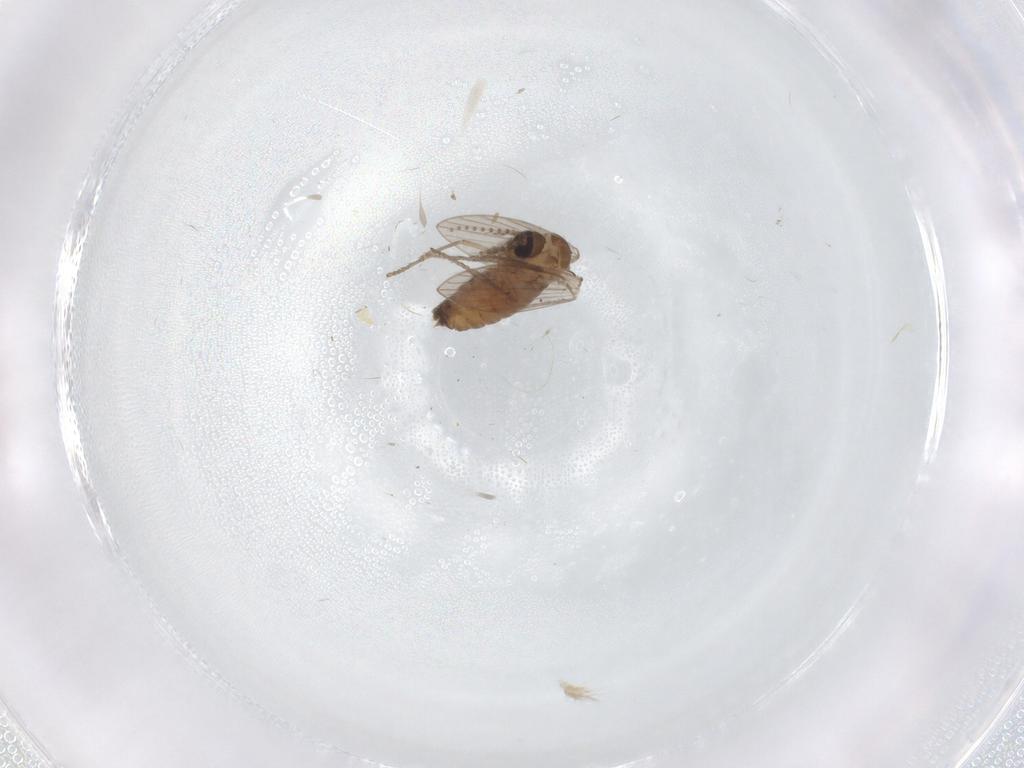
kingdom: Animalia
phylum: Arthropoda
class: Insecta
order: Diptera
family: Psychodidae
